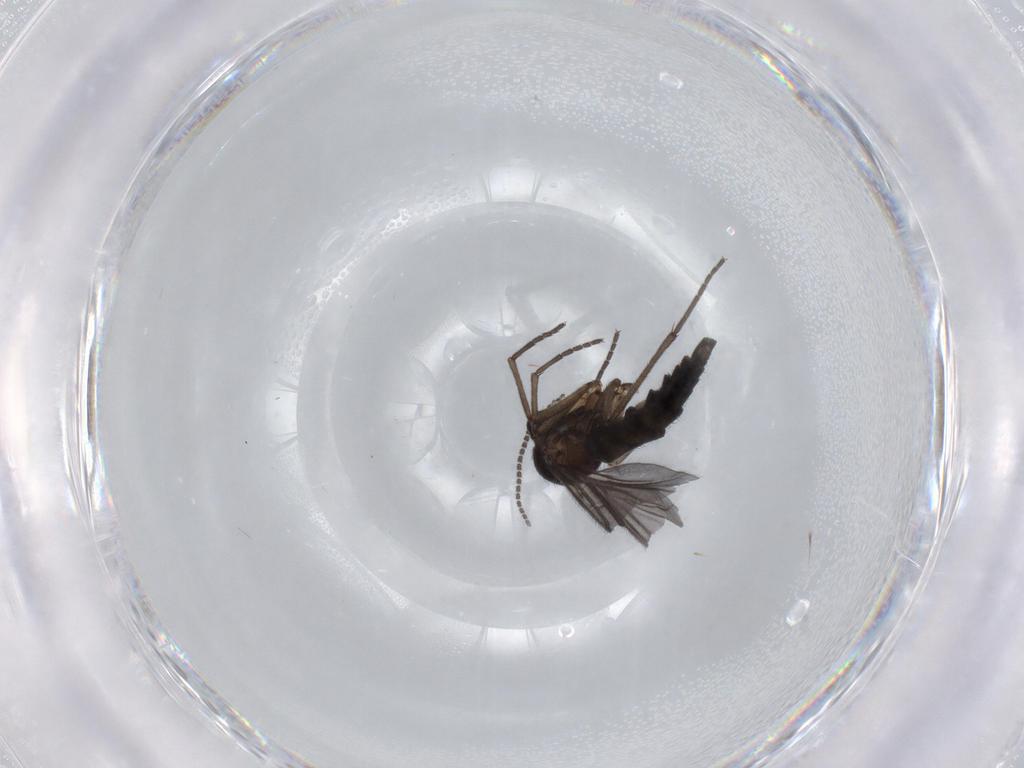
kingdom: Animalia
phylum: Arthropoda
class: Insecta
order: Diptera
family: Sciaridae
